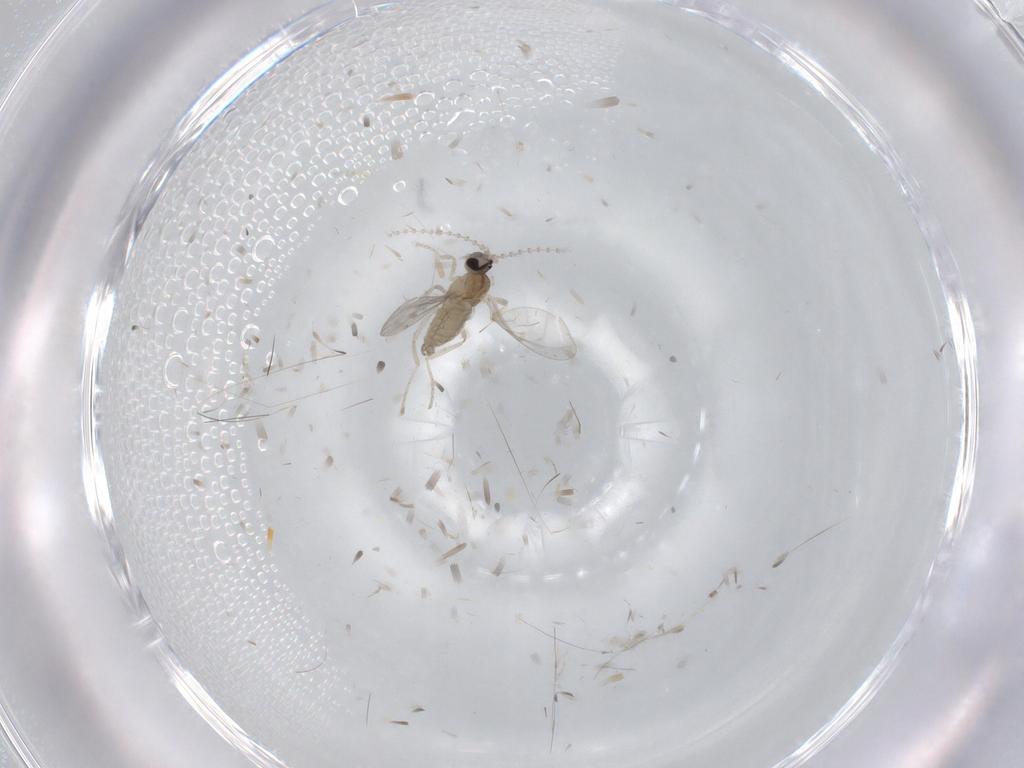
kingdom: Animalia
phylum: Arthropoda
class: Insecta
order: Diptera
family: Cecidomyiidae
